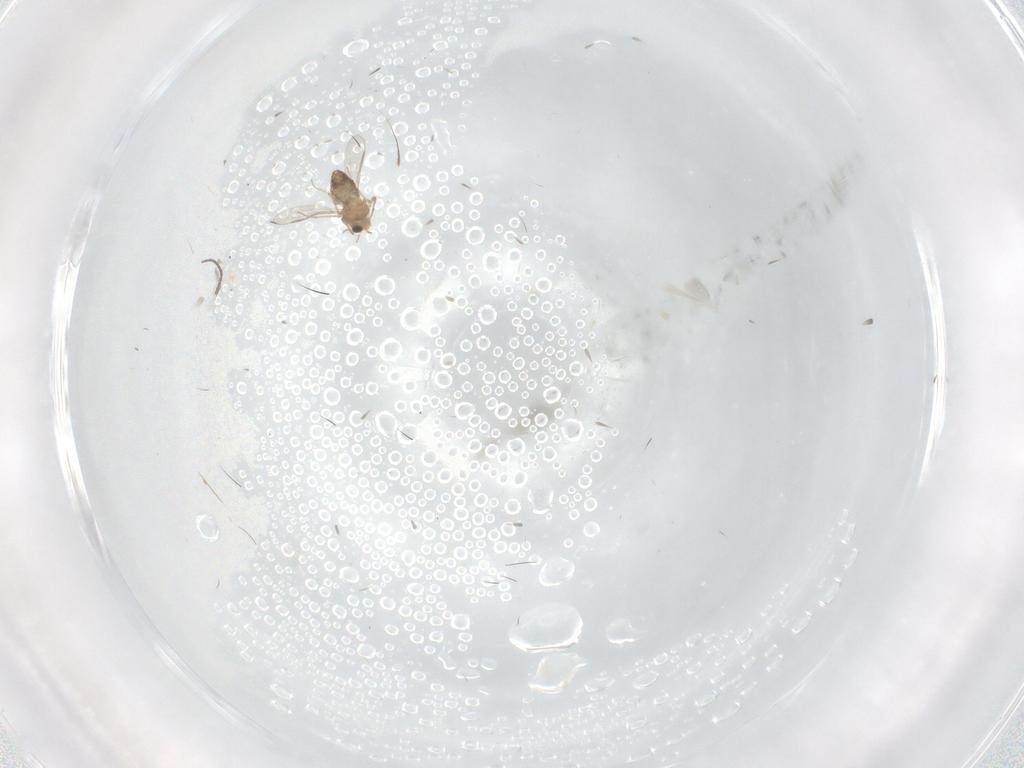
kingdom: Animalia
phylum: Arthropoda
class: Insecta
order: Diptera
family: Chironomidae
